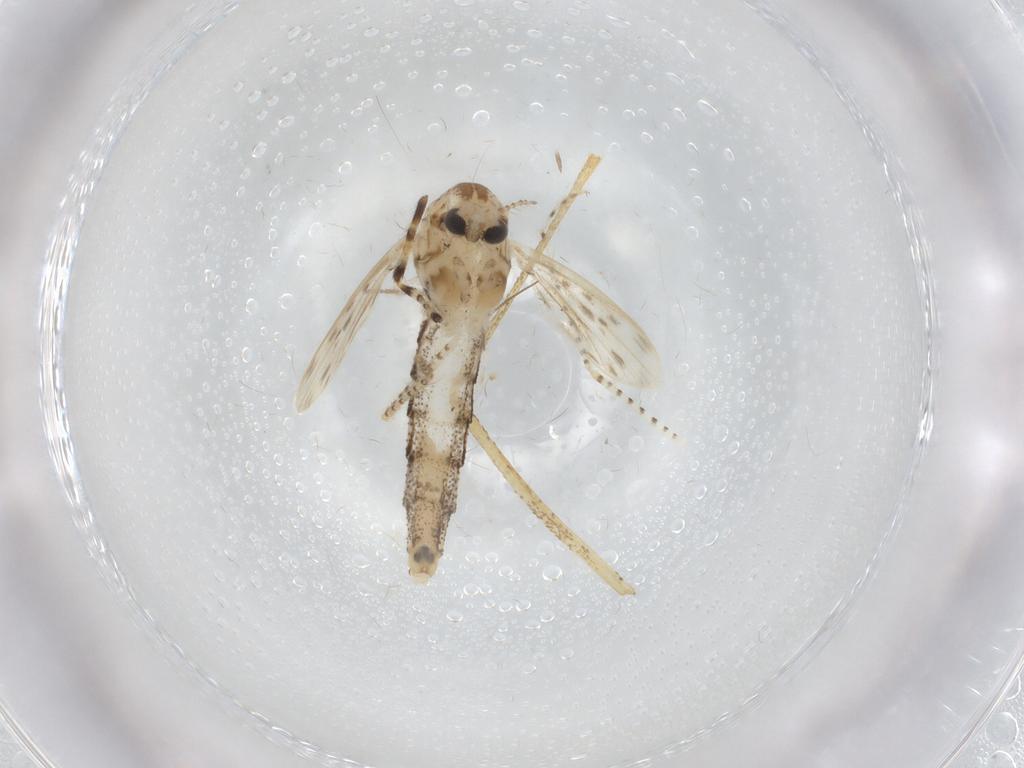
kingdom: Animalia
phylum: Arthropoda
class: Insecta
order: Diptera
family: Chaoboridae
